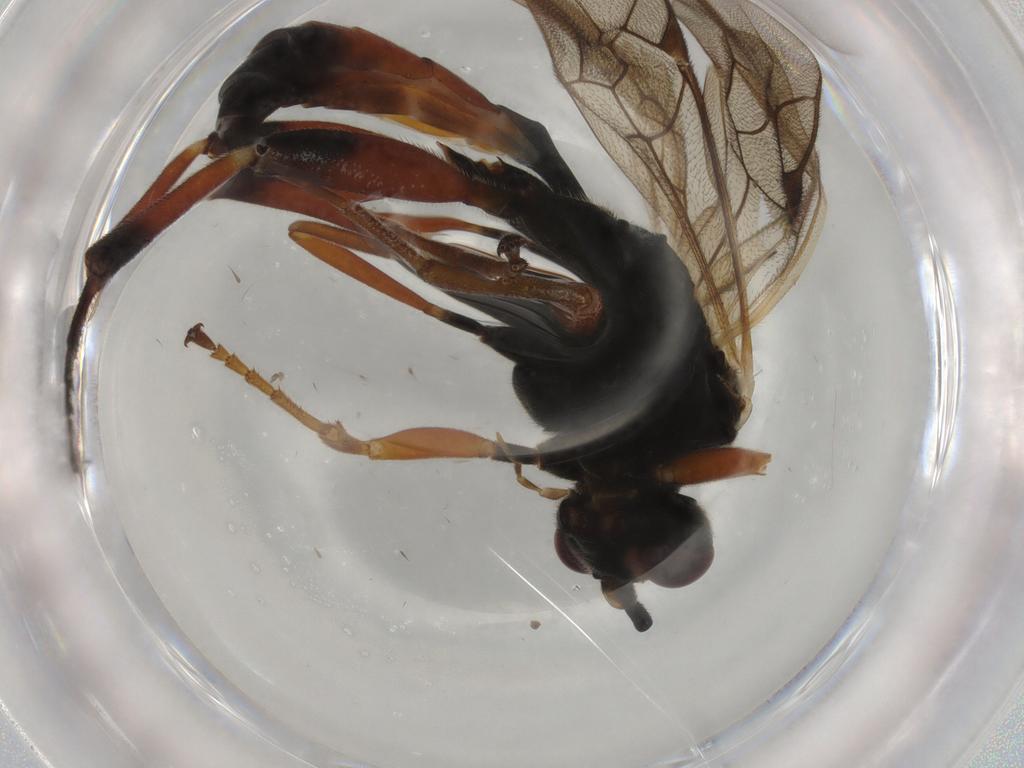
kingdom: Animalia
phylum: Arthropoda
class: Insecta
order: Hymenoptera
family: Ichneumonidae
